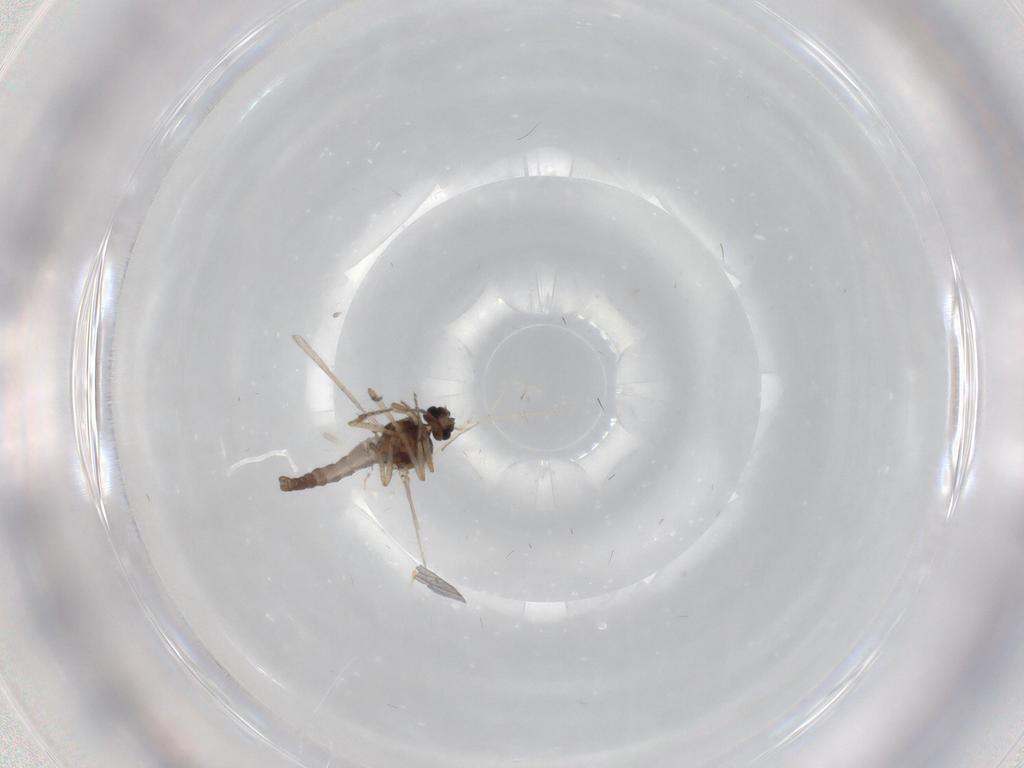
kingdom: Animalia
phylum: Arthropoda
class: Insecta
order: Diptera
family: Ceratopogonidae
